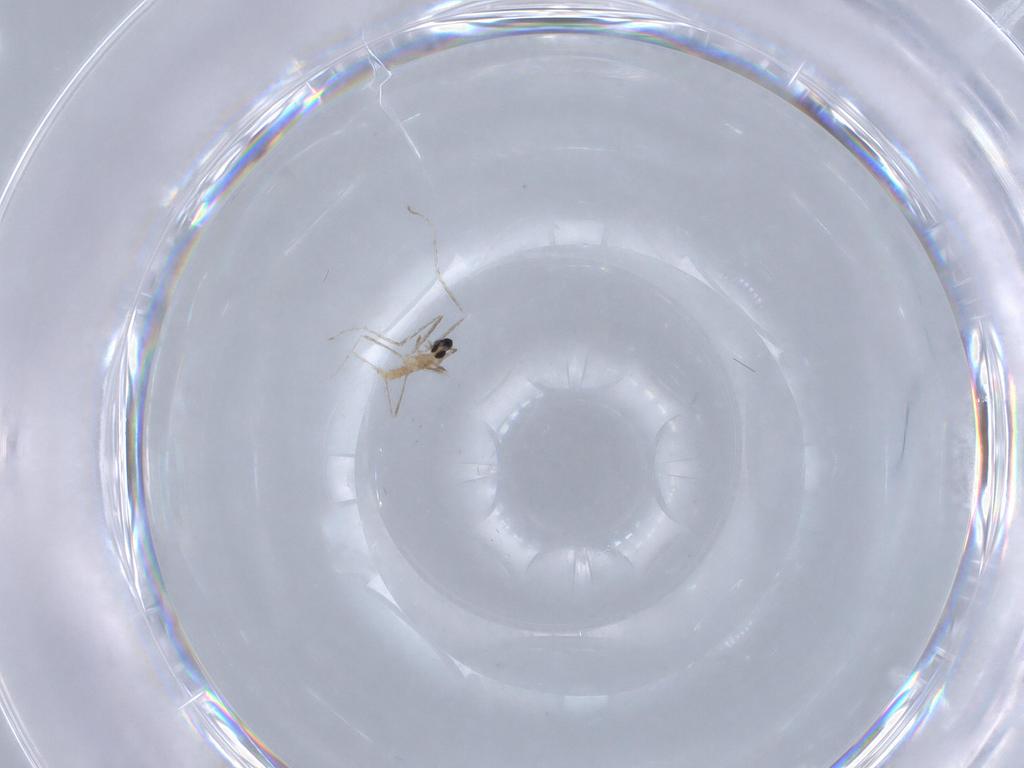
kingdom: Animalia
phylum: Arthropoda
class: Insecta
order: Diptera
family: Cecidomyiidae
